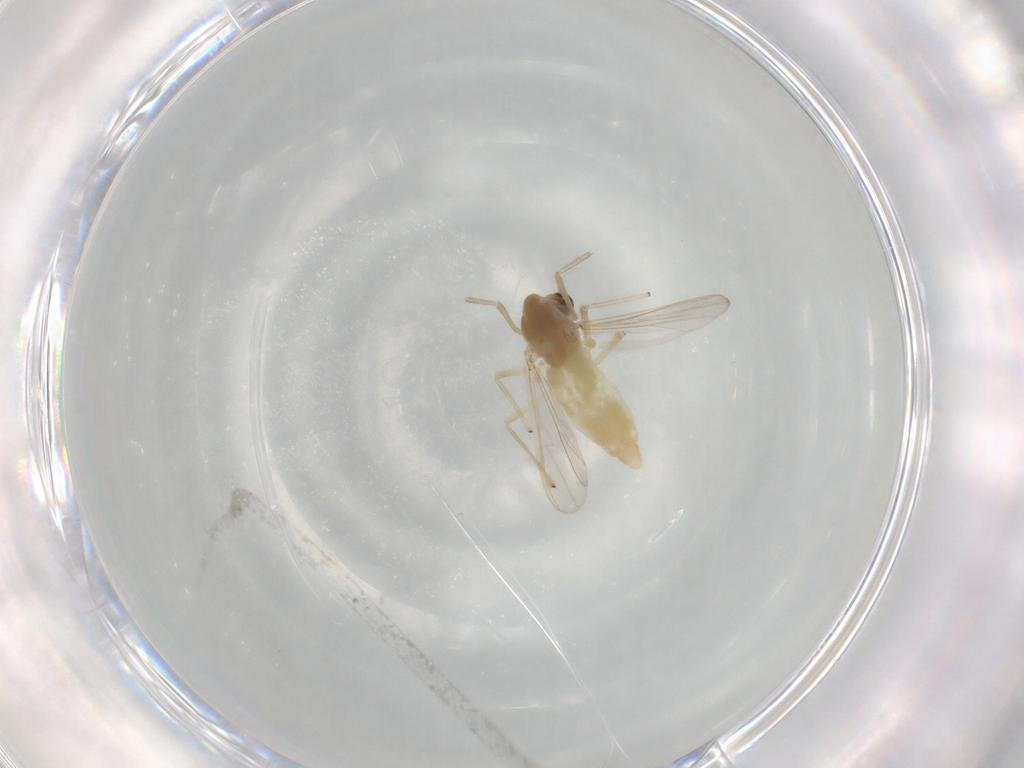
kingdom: Animalia
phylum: Arthropoda
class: Insecta
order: Diptera
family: Chironomidae
